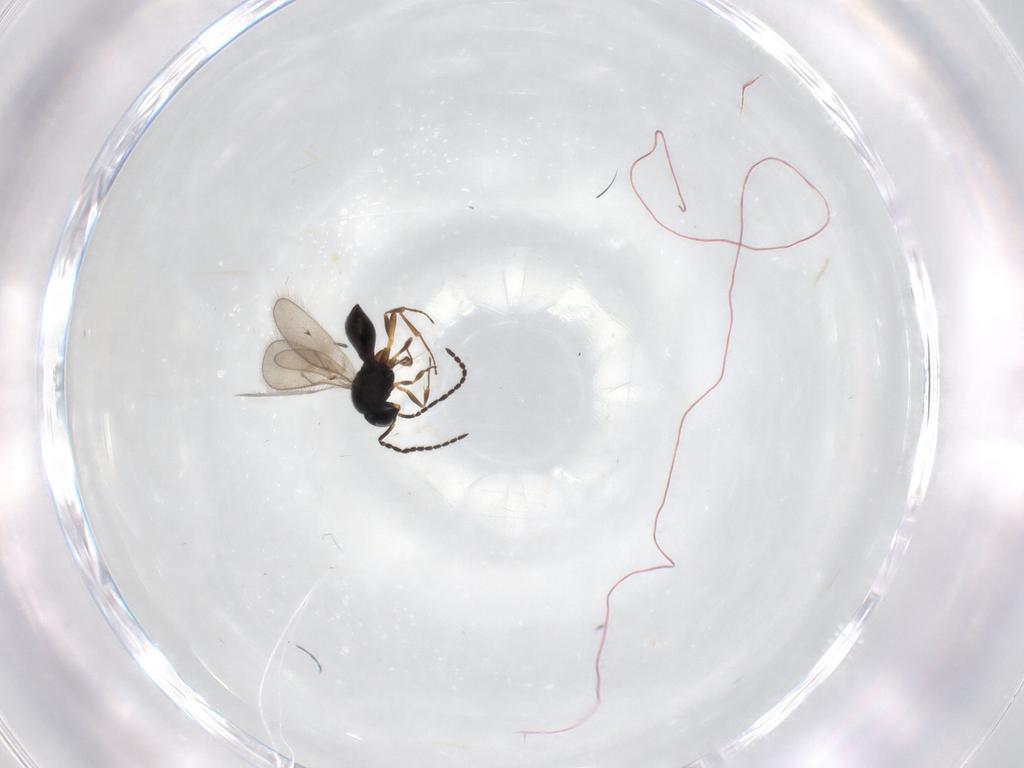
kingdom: Animalia
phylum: Arthropoda
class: Insecta
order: Hymenoptera
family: Scelionidae
